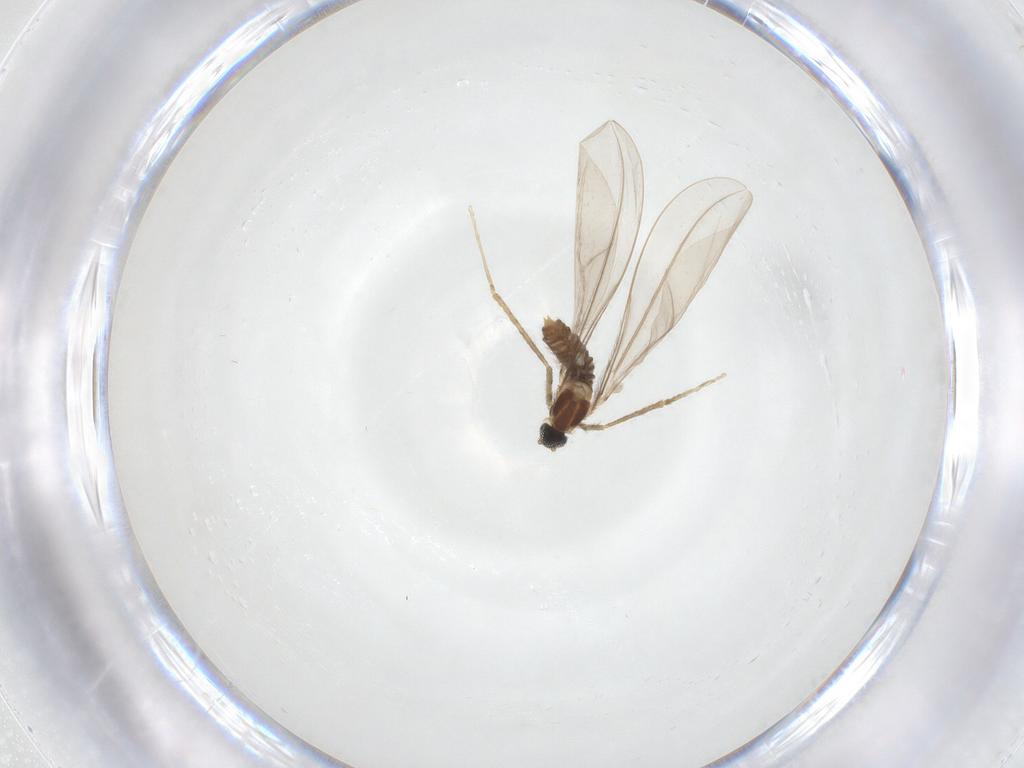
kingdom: Animalia
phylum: Arthropoda
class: Insecta
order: Diptera
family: Cecidomyiidae
